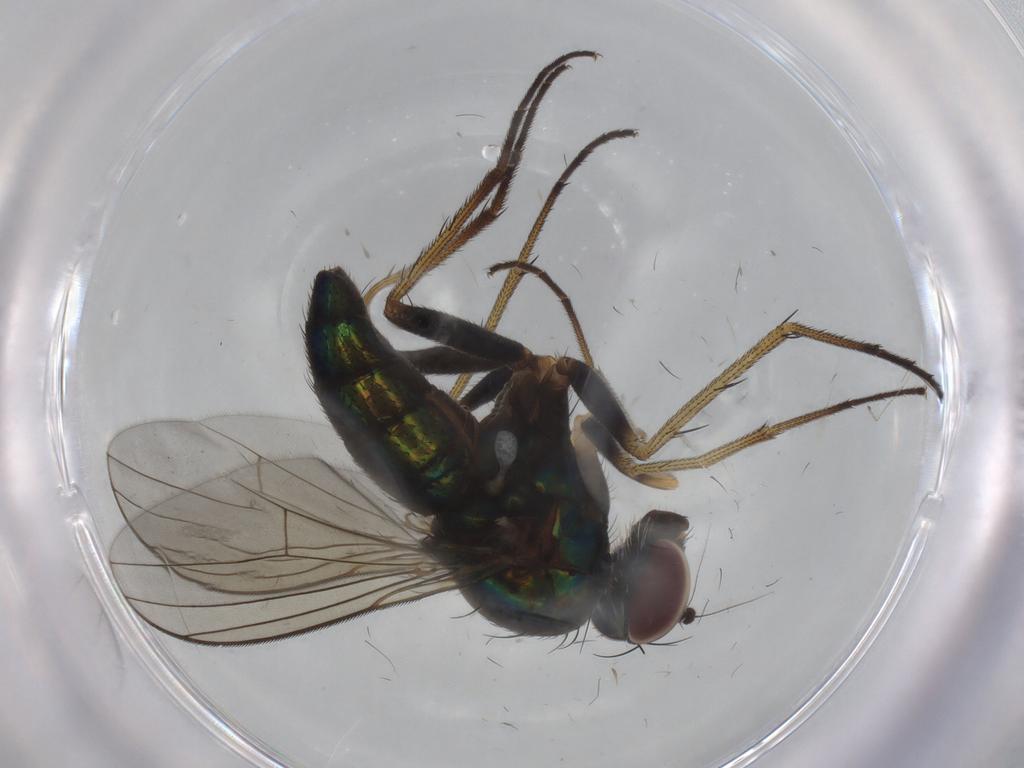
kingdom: Animalia
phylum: Arthropoda
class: Insecta
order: Diptera
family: Dolichopodidae
